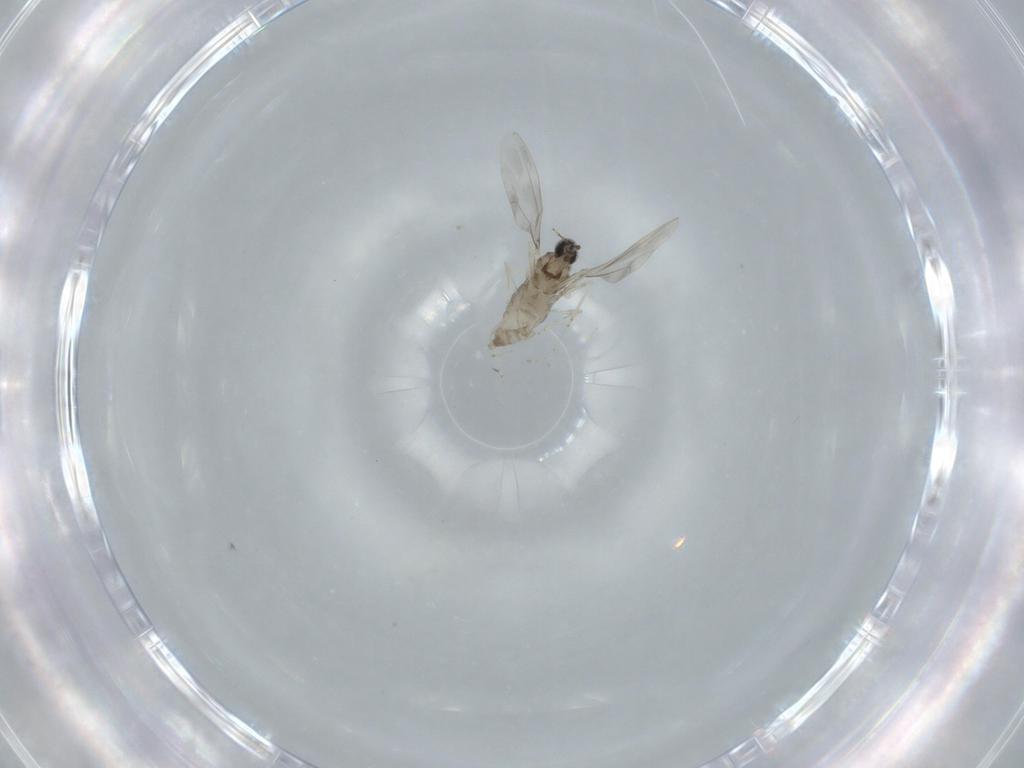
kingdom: Animalia
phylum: Arthropoda
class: Insecta
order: Diptera
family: Cecidomyiidae
